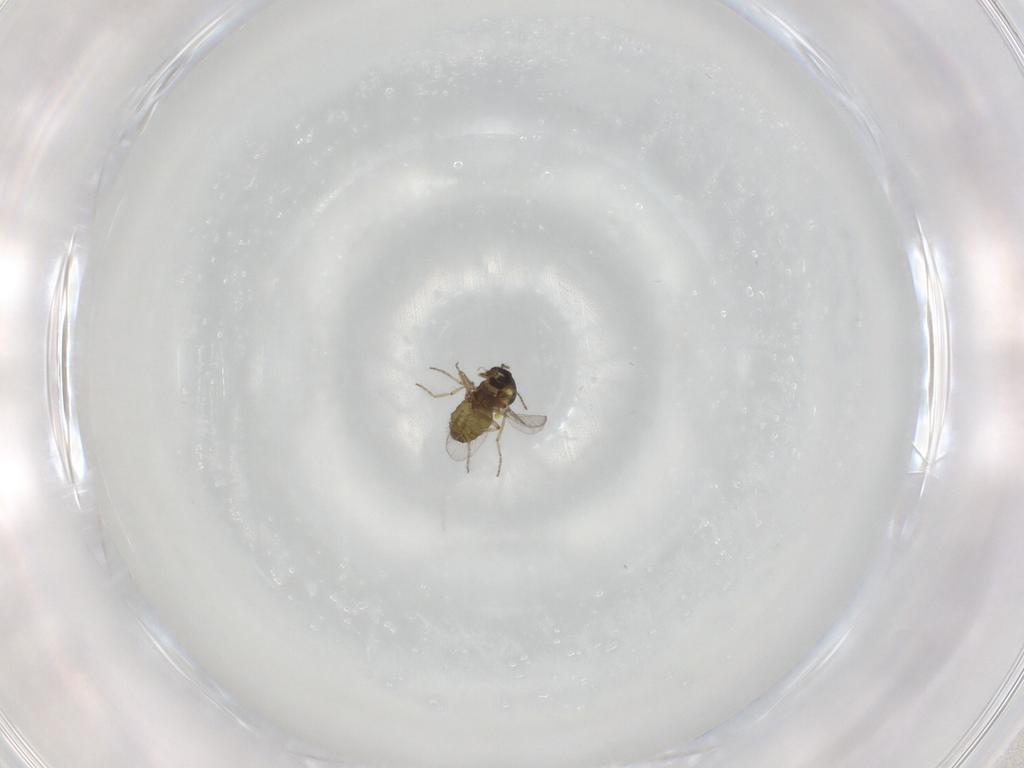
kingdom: Animalia
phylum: Arthropoda
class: Insecta
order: Diptera
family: Ceratopogonidae
